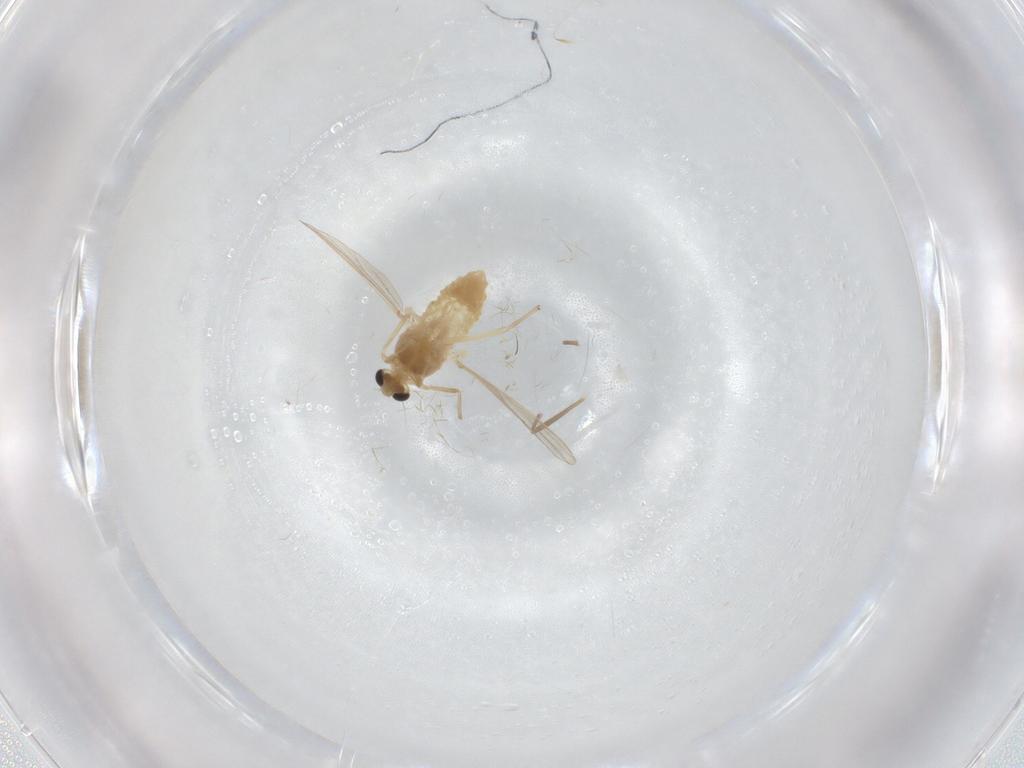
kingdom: Animalia
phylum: Arthropoda
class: Insecta
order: Diptera
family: Chironomidae
